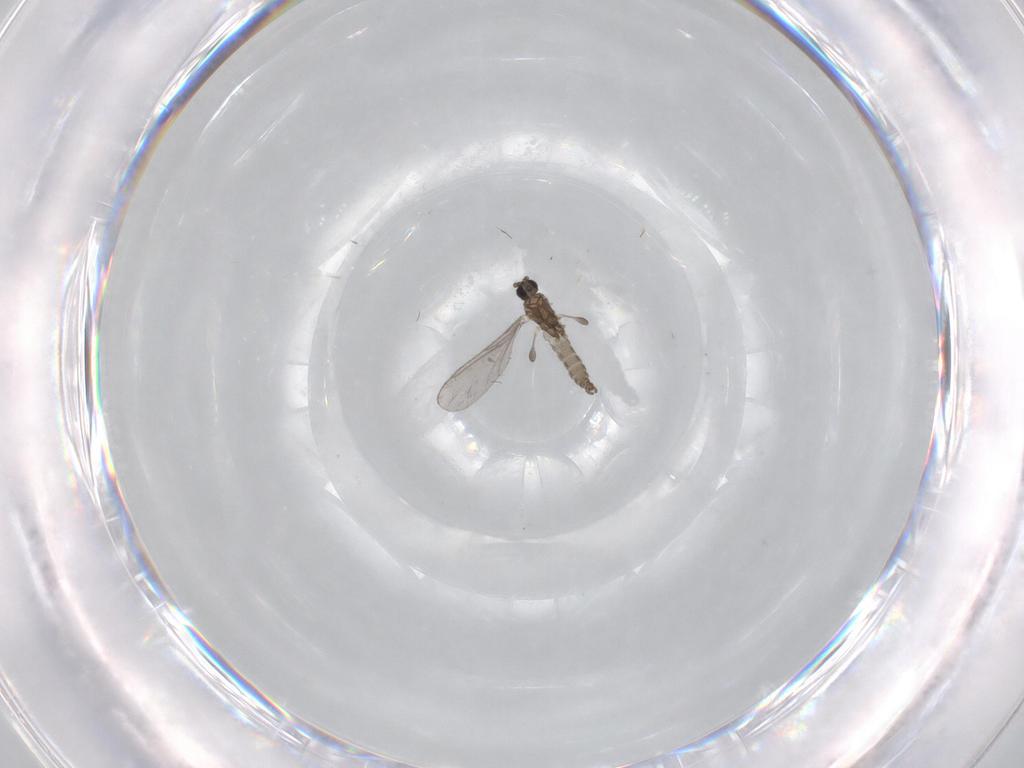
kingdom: Animalia
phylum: Arthropoda
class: Insecta
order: Diptera
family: Sciaridae
